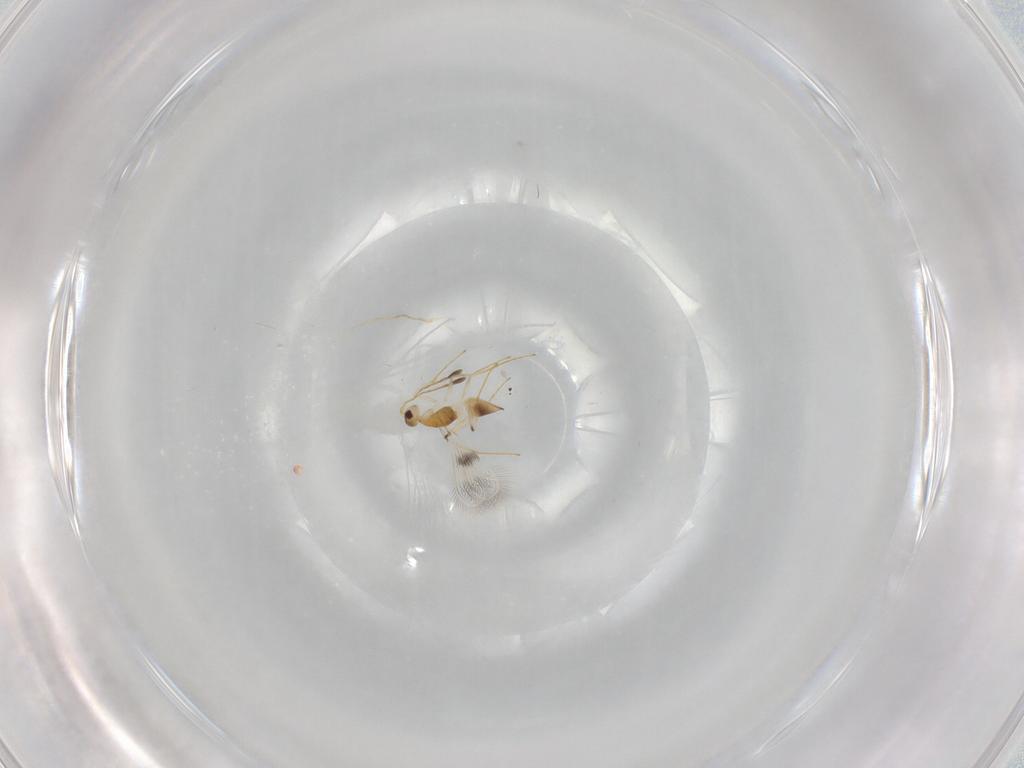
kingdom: Animalia
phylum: Arthropoda
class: Insecta
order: Hymenoptera
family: Mymaridae
